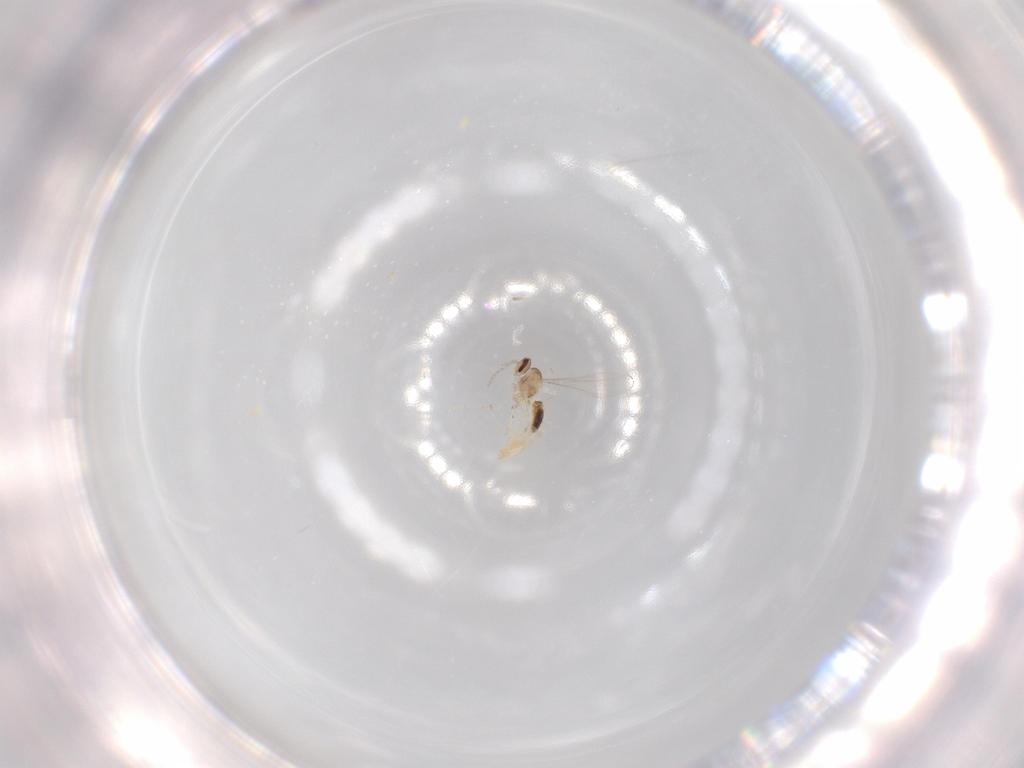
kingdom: Animalia
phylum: Arthropoda
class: Insecta
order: Diptera
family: Cecidomyiidae
